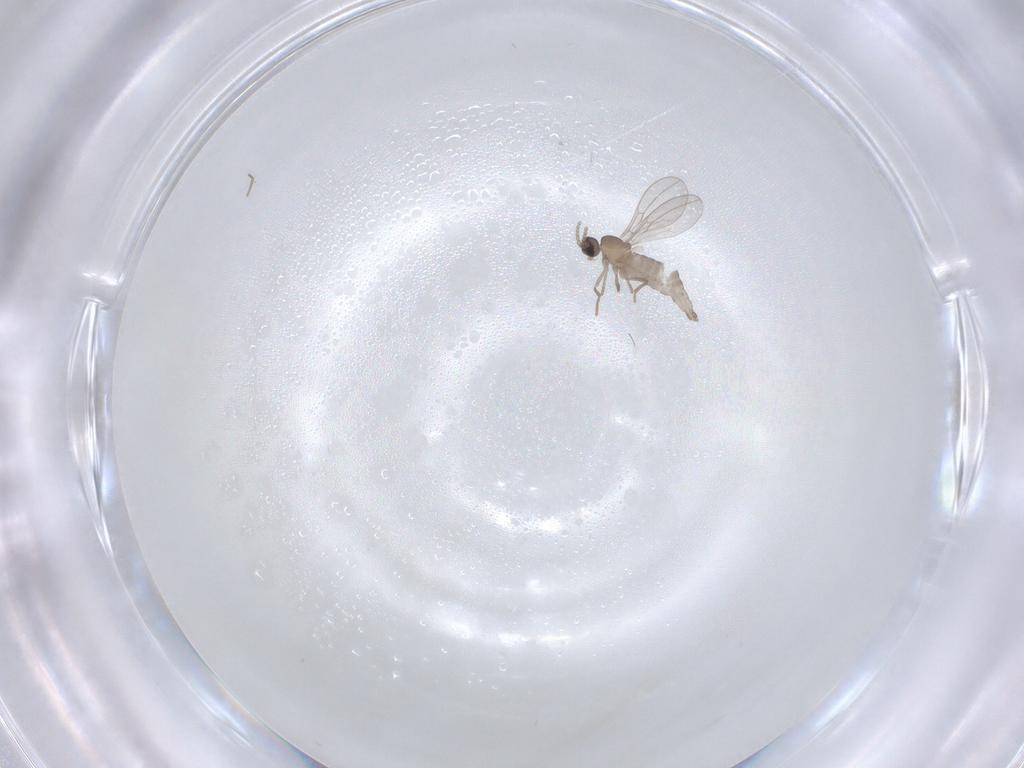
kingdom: Animalia
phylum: Arthropoda
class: Insecta
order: Diptera
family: Cecidomyiidae
